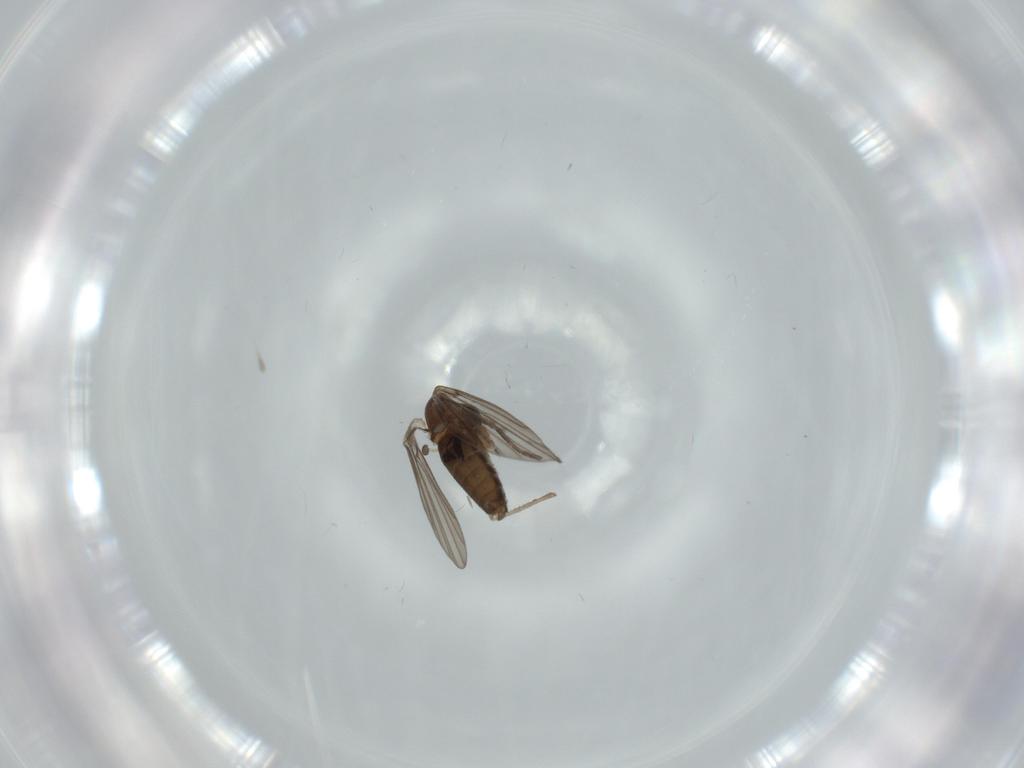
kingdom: Animalia
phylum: Arthropoda
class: Insecta
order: Diptera
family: Psychodidae
